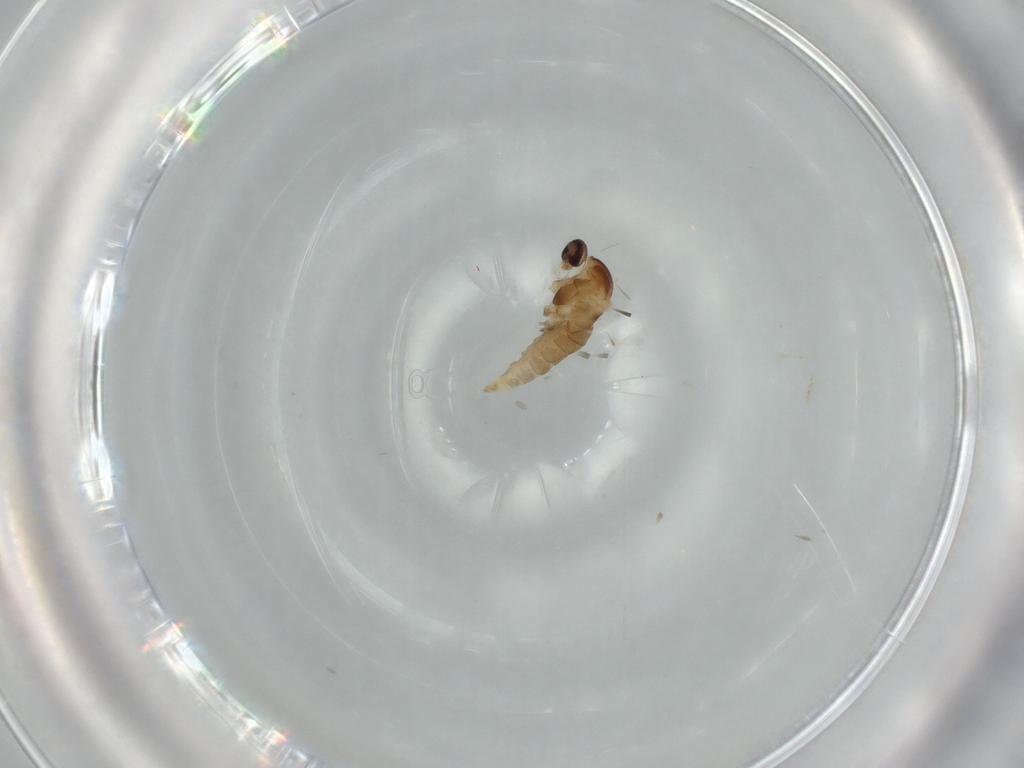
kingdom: Animalia
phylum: Arthropoda
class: Insecta
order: Diptera
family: Cecidomyiidae
